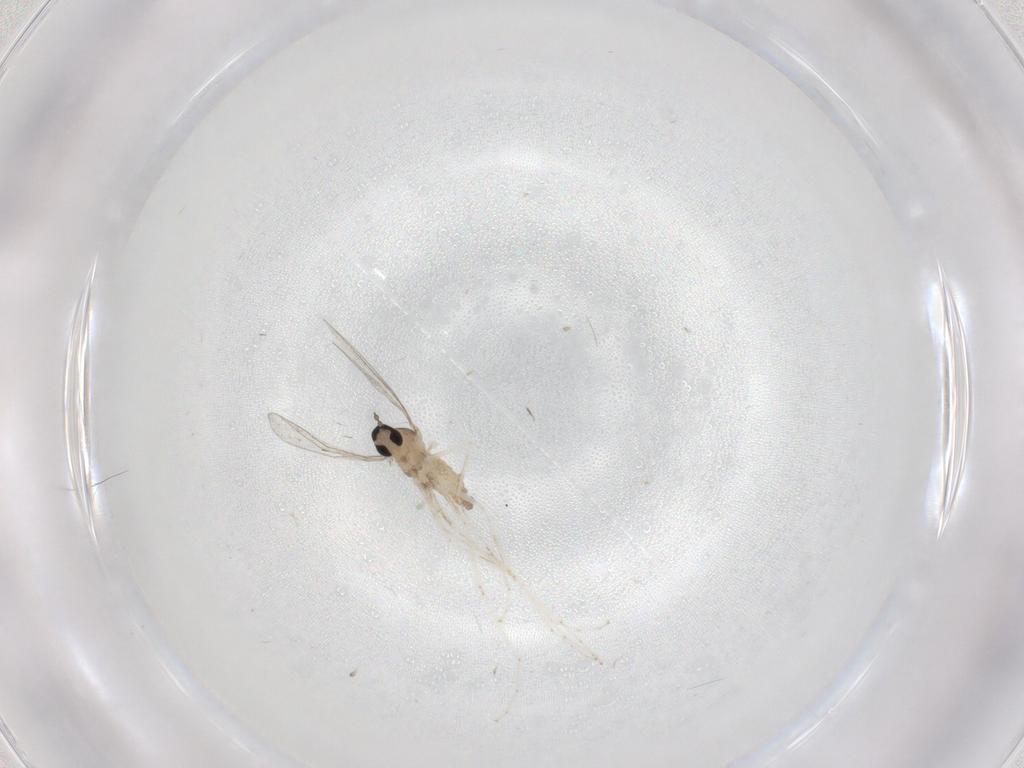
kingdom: Animalia
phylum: Arthropoda
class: Insecta
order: Diptera
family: Cecidomyiidae
